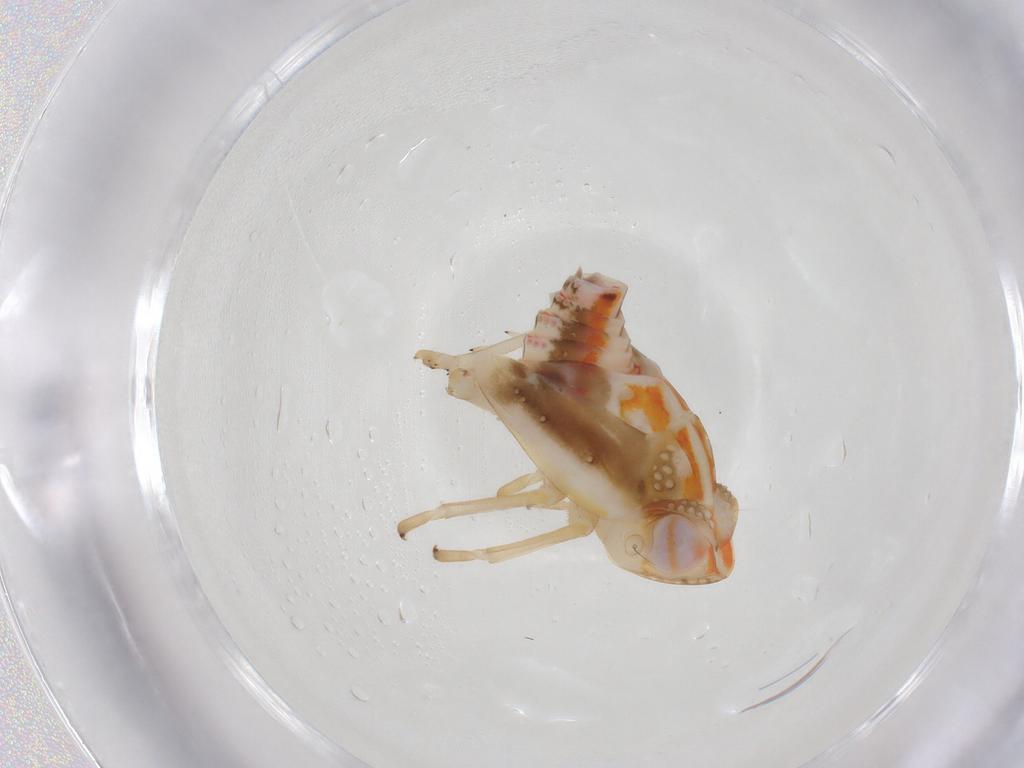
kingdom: Animalia
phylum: Arthropoda
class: Insecta
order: Hemiptera
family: Nogodinidae
